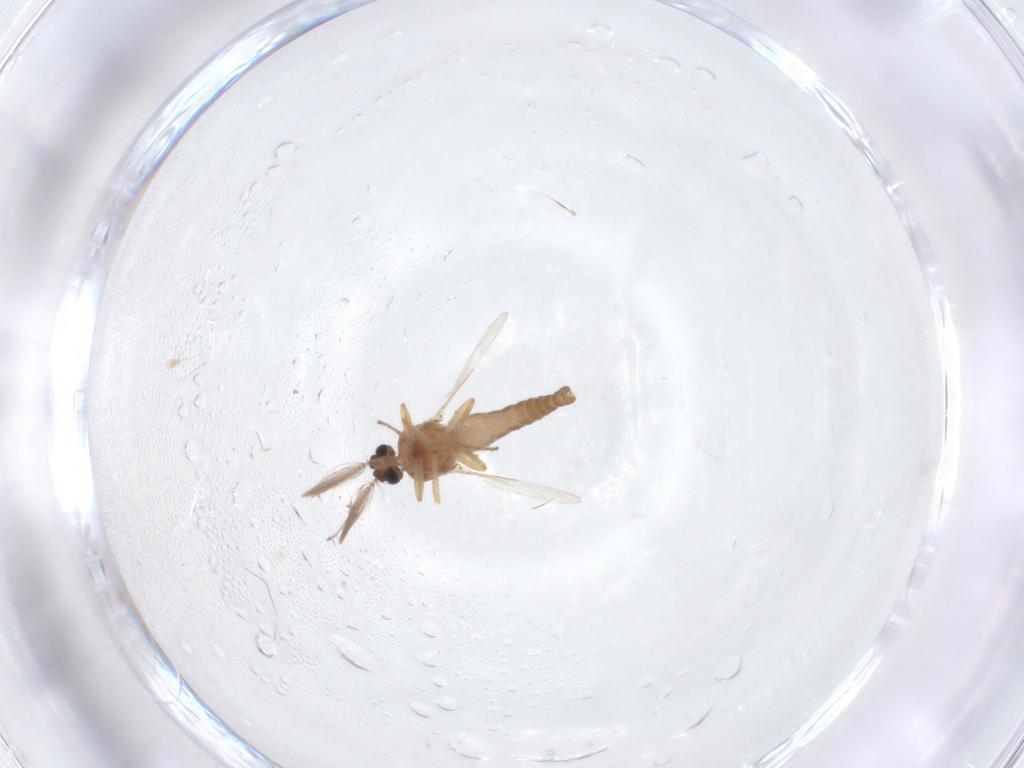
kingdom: Animalia
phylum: Arthropoda
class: Insecta
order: Diptera
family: Ceratopogonidae
